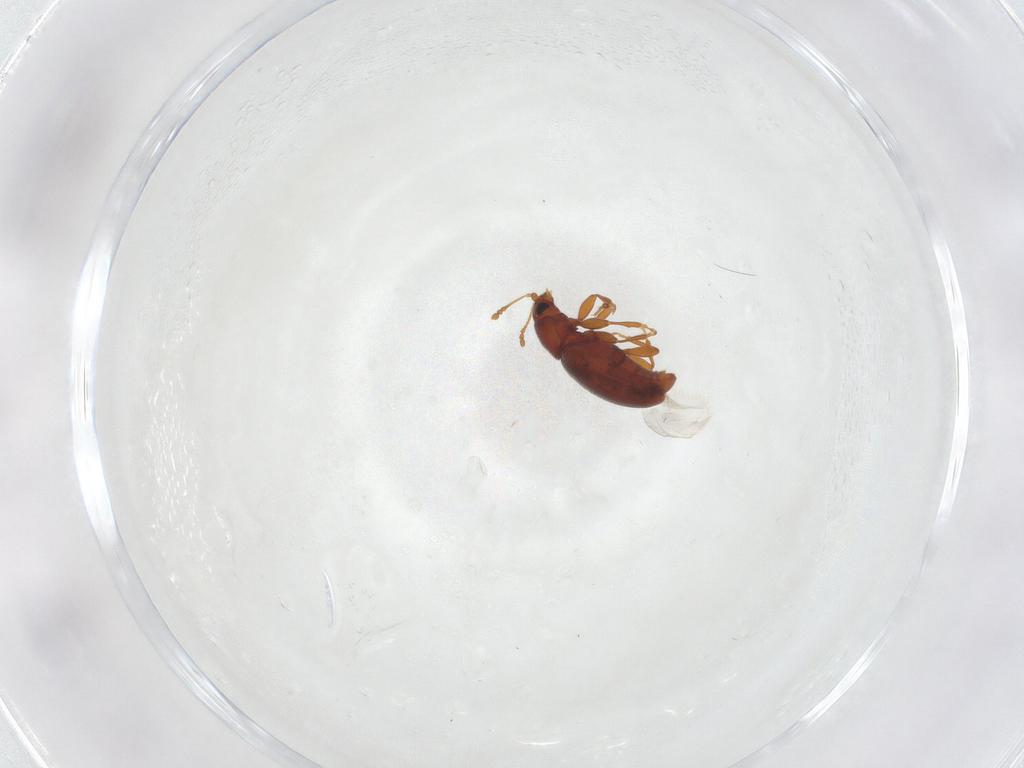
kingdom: Animalia
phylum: Arthropoda
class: Insecta
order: Coleoptera
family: Latridiidae
